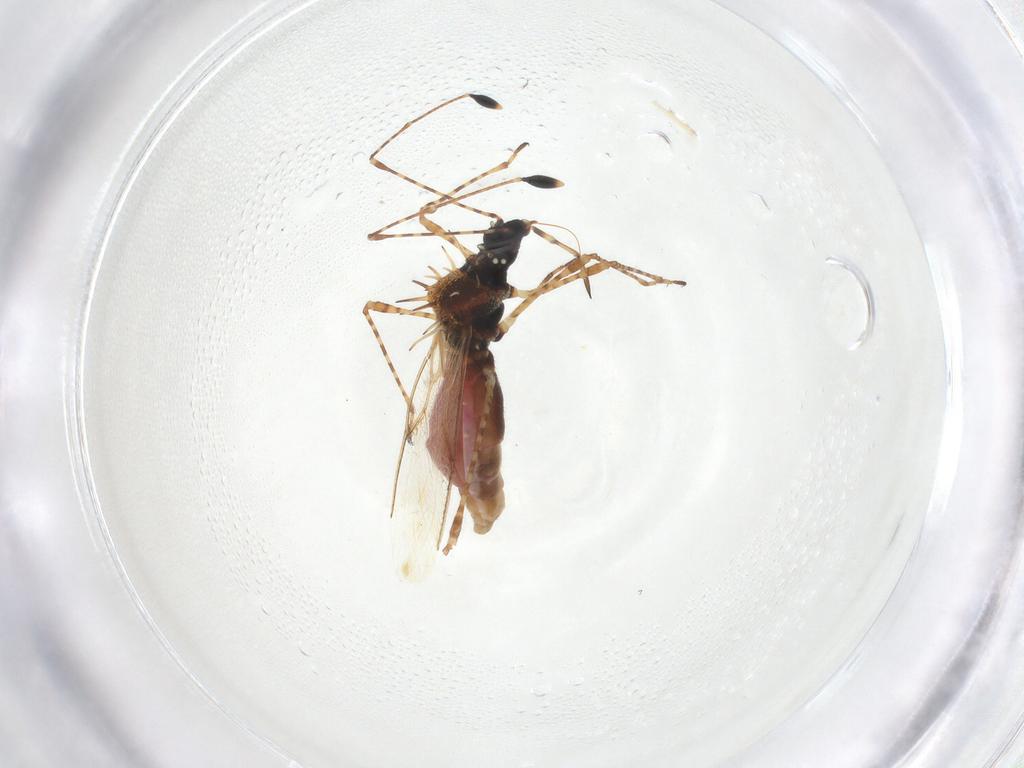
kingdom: Animalia
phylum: Arthropoda
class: Insecta
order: Hemiptera
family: Berytidae
